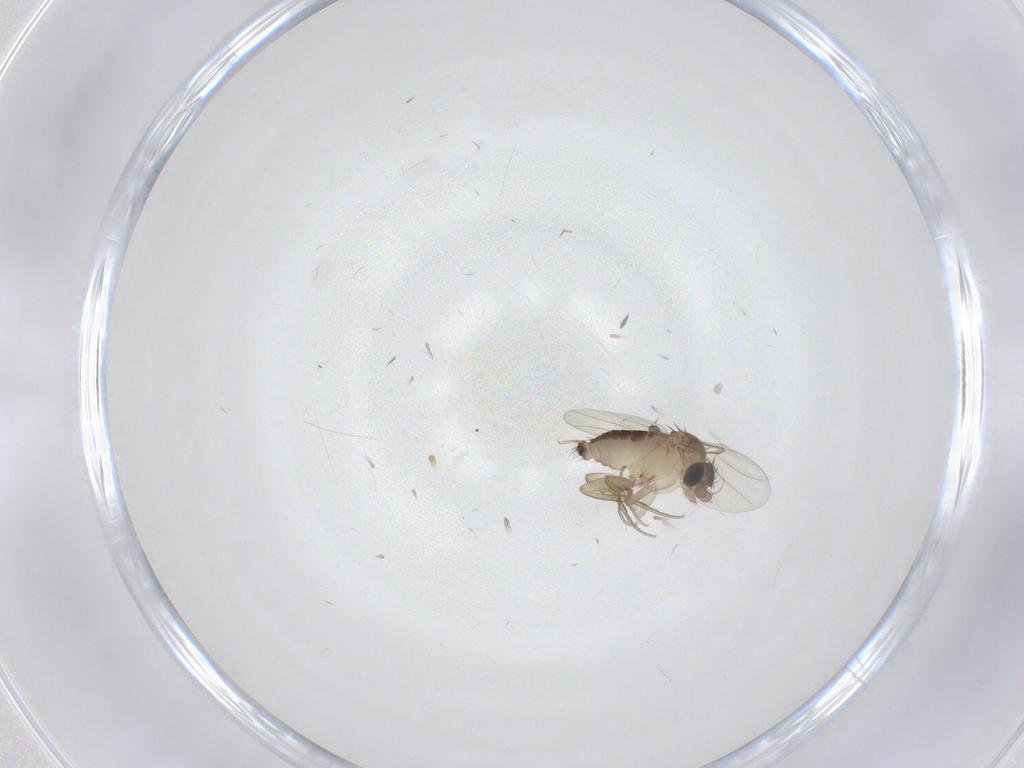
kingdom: Animalia
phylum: Arthropoda
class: Insecta
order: Diptera
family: Phoridae
